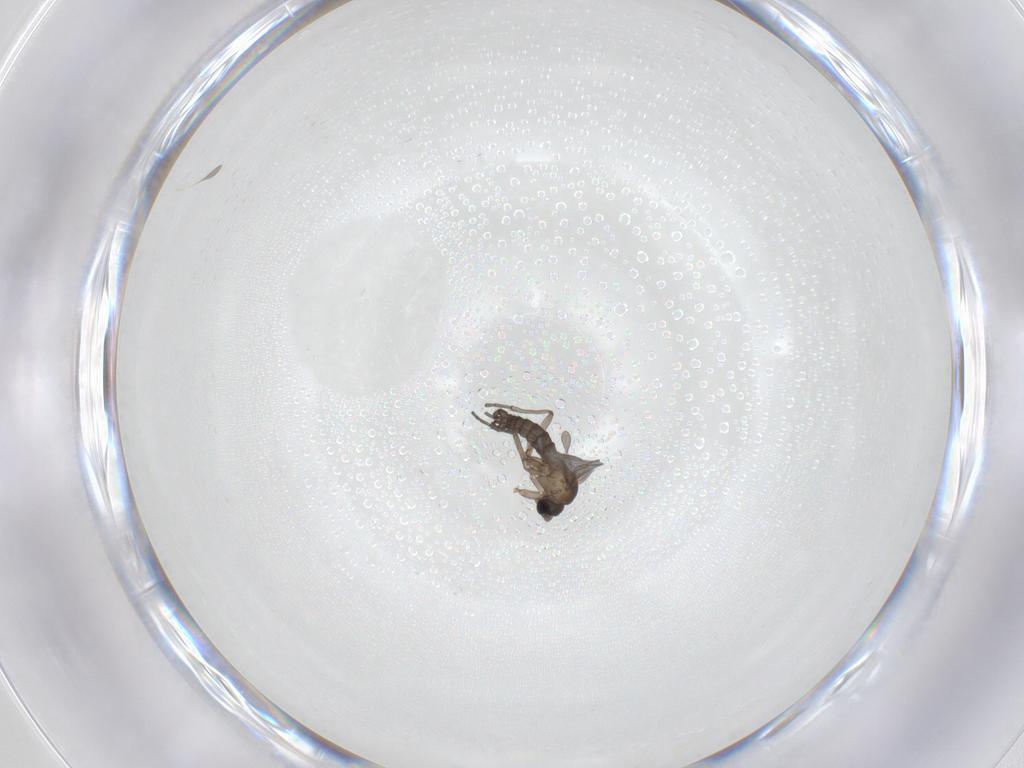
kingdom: Animalia
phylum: Arthropoda
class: Insecta
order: Diptera
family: Sciaridae
